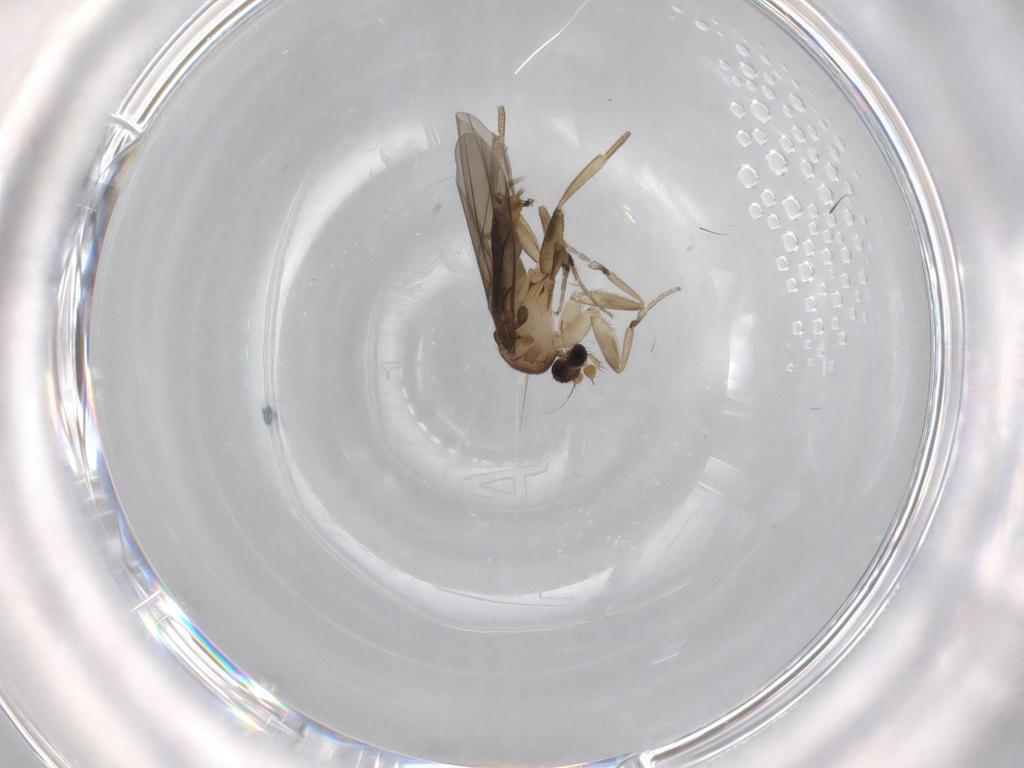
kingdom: Animalia
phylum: Arthropoda
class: Insecta
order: Diptera
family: Chironomidae
